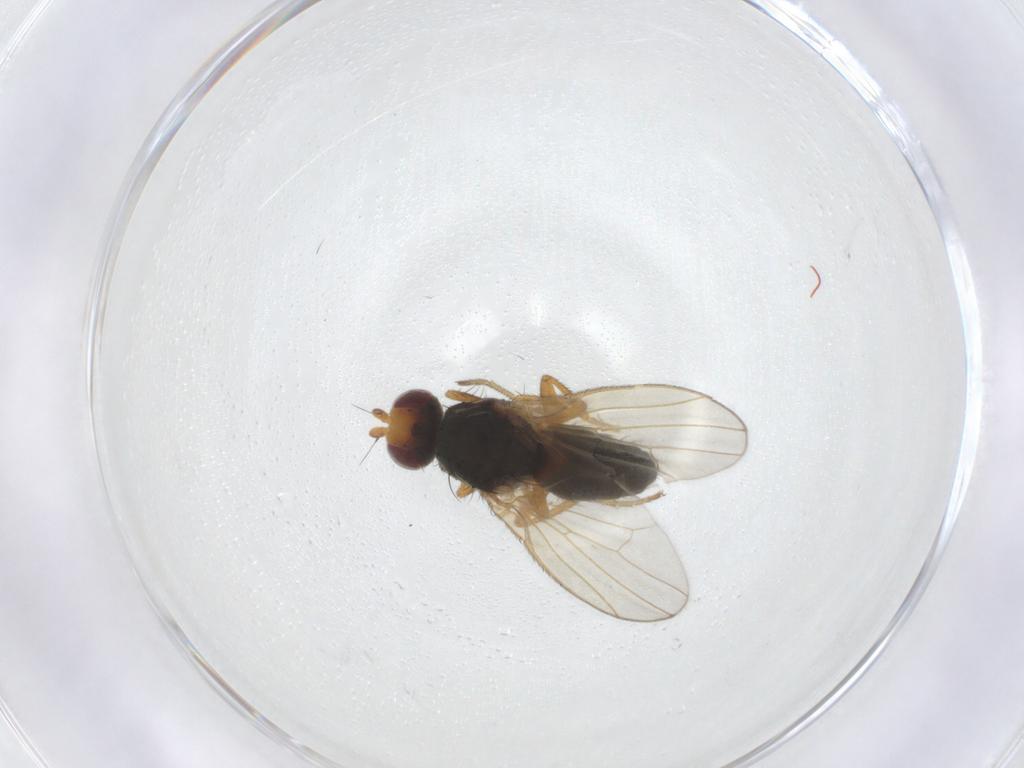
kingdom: Animalia
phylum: Arthropoda
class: Insecta
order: Diptera
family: Heleomyzidae
